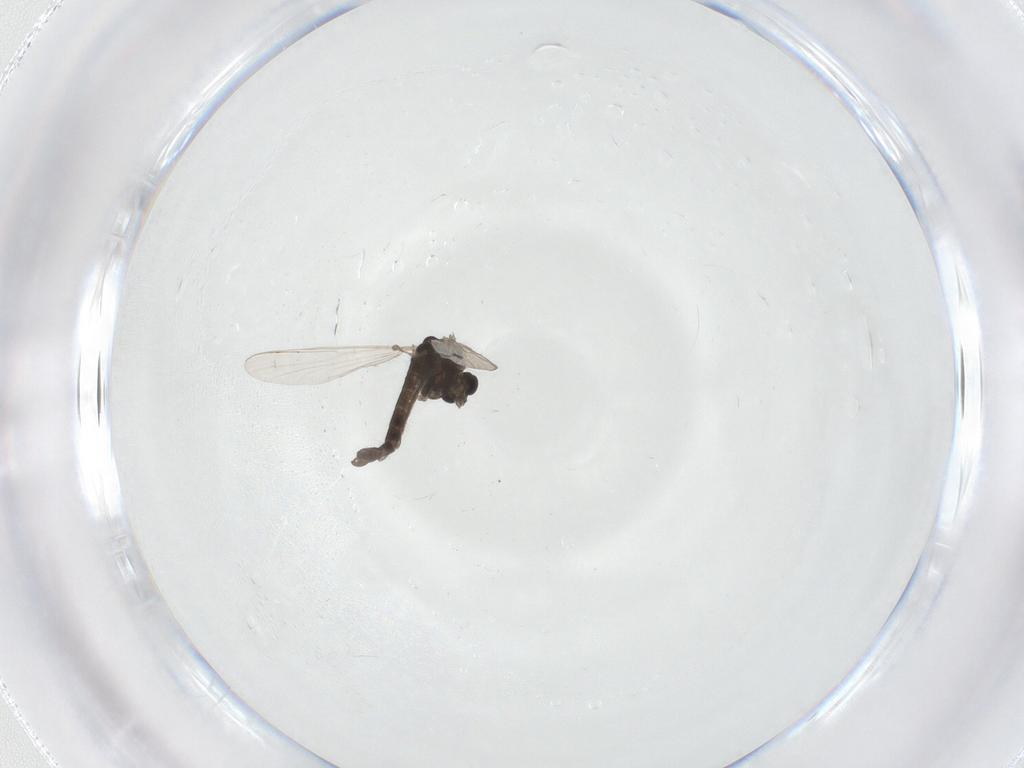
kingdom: Animalia
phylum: Arthropoda
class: Insecta
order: Diptera
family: Chironomidae
